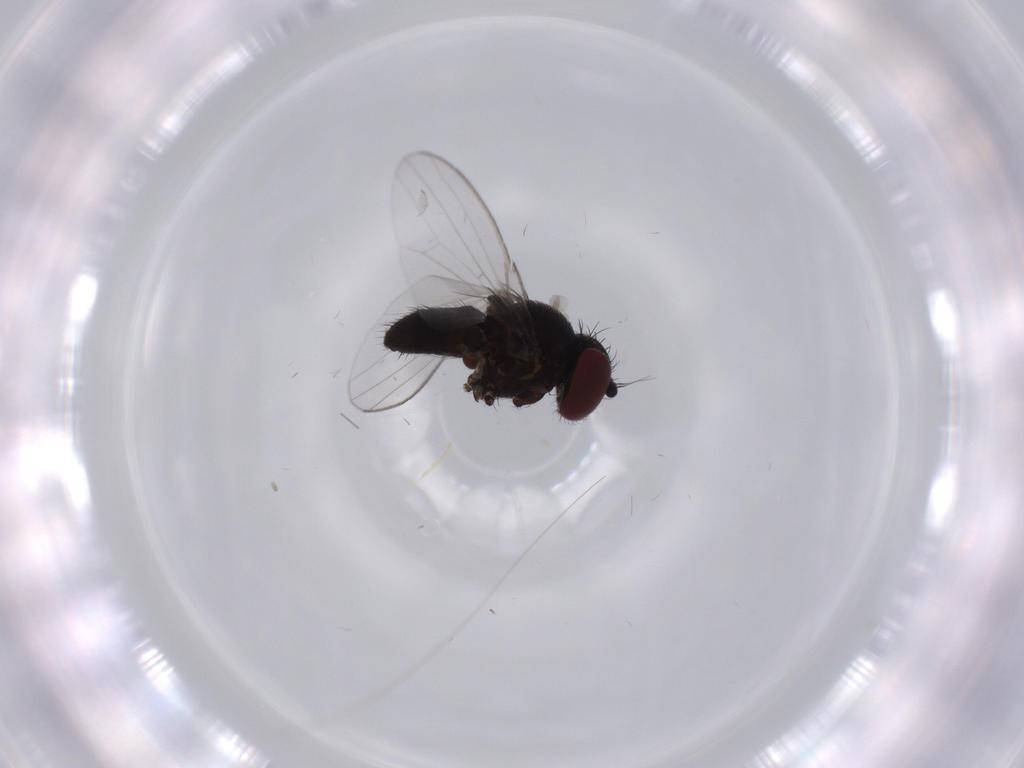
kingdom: Animalia
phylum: Arthropoda
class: Insecta
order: Diptera
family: Milichiidae
